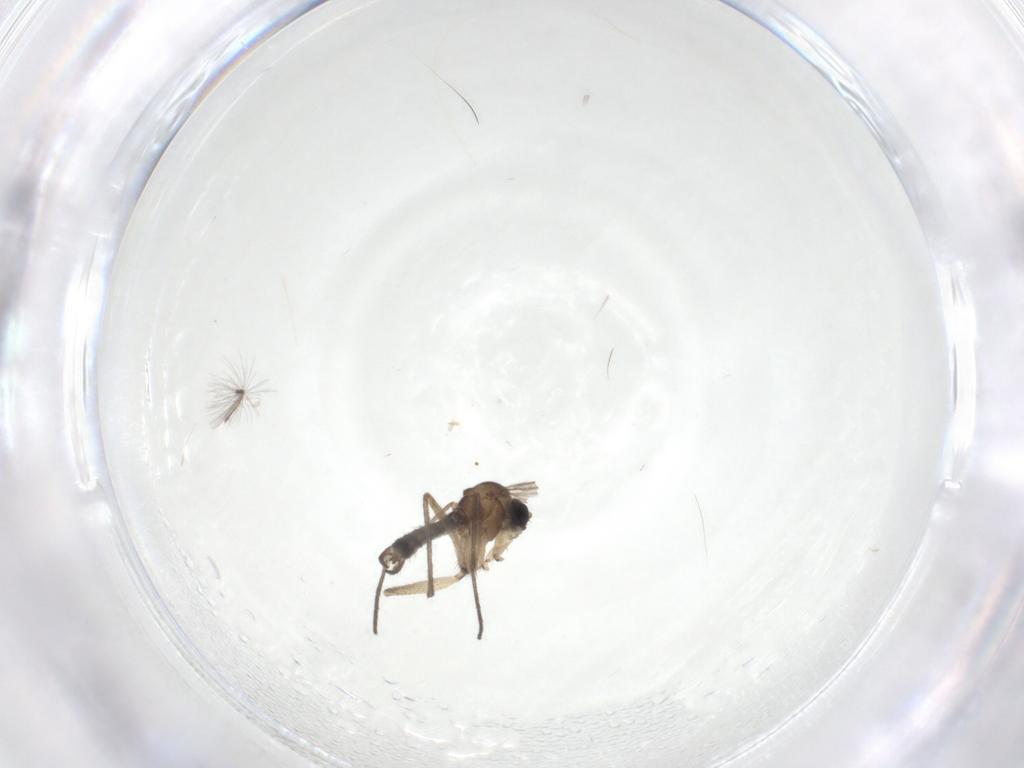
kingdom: Animalia
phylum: Arthropoda
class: Insecta
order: Diptera
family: Sciaridae
